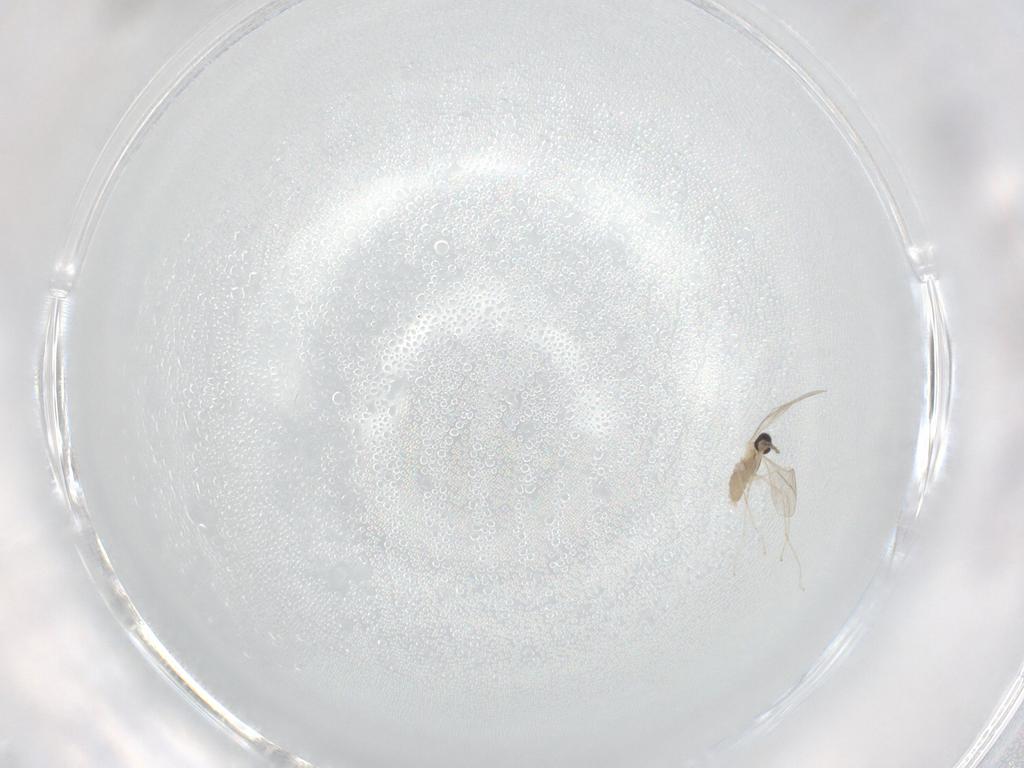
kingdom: Animalia
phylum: Arthropoda
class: Insecta
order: Diptera
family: Cecidomyiidae
